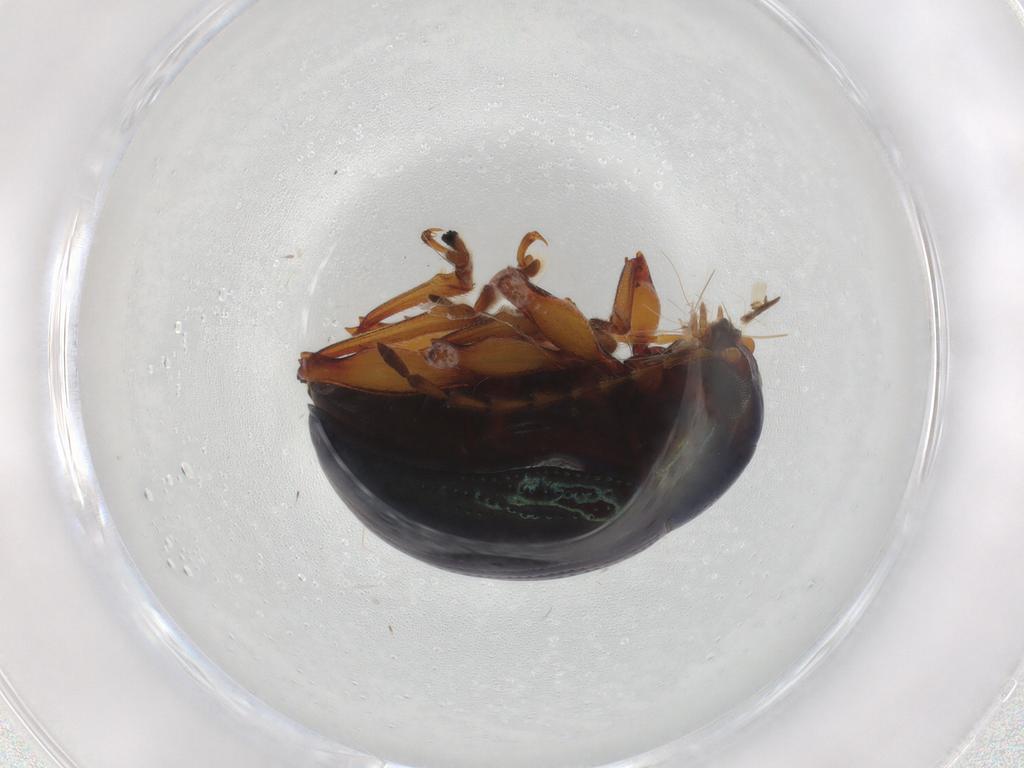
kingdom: Animalia
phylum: Arthropoda
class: Insecta
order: Coleoptera
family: Chrysomelidae
